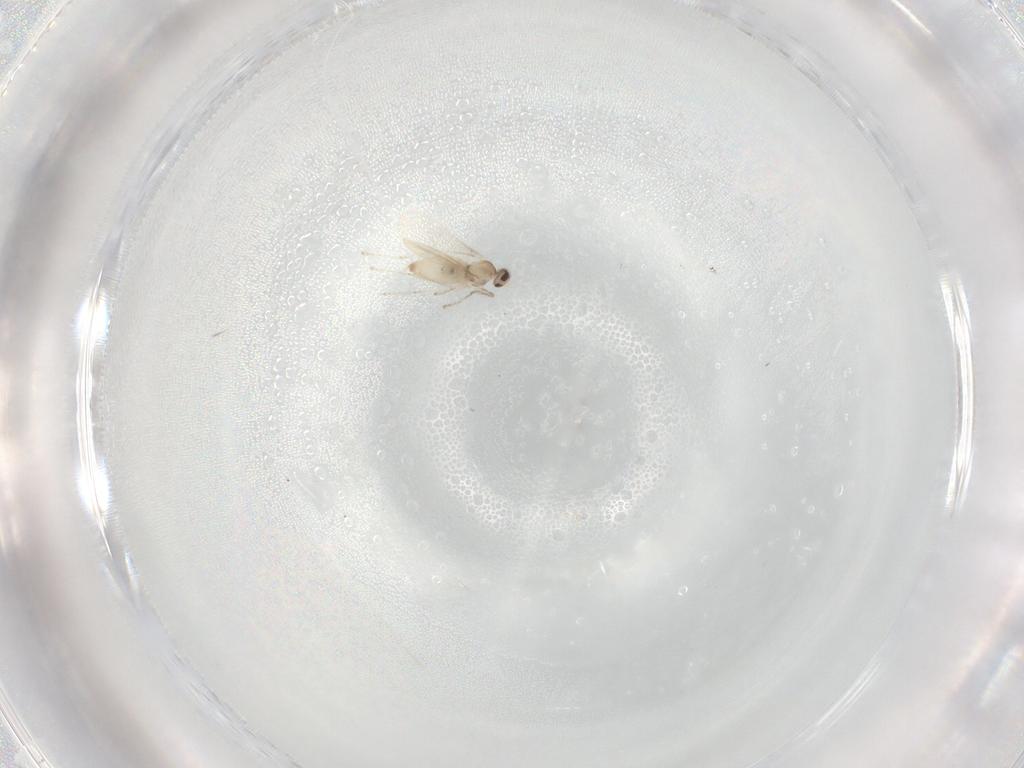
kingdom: Animalia
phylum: Arthropoda
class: Insecta
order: Diptera
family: Cecidomyiidae
